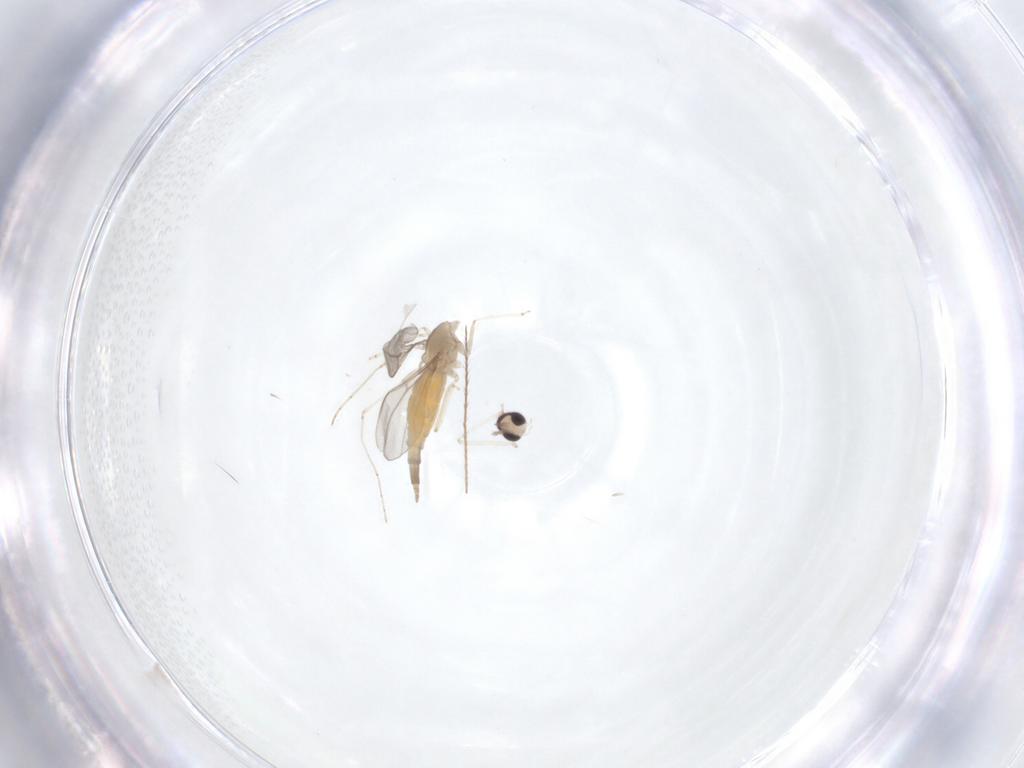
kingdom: Animalia
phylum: Arthropoda
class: Insecta
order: Diptera
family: Cecidomyiidae
